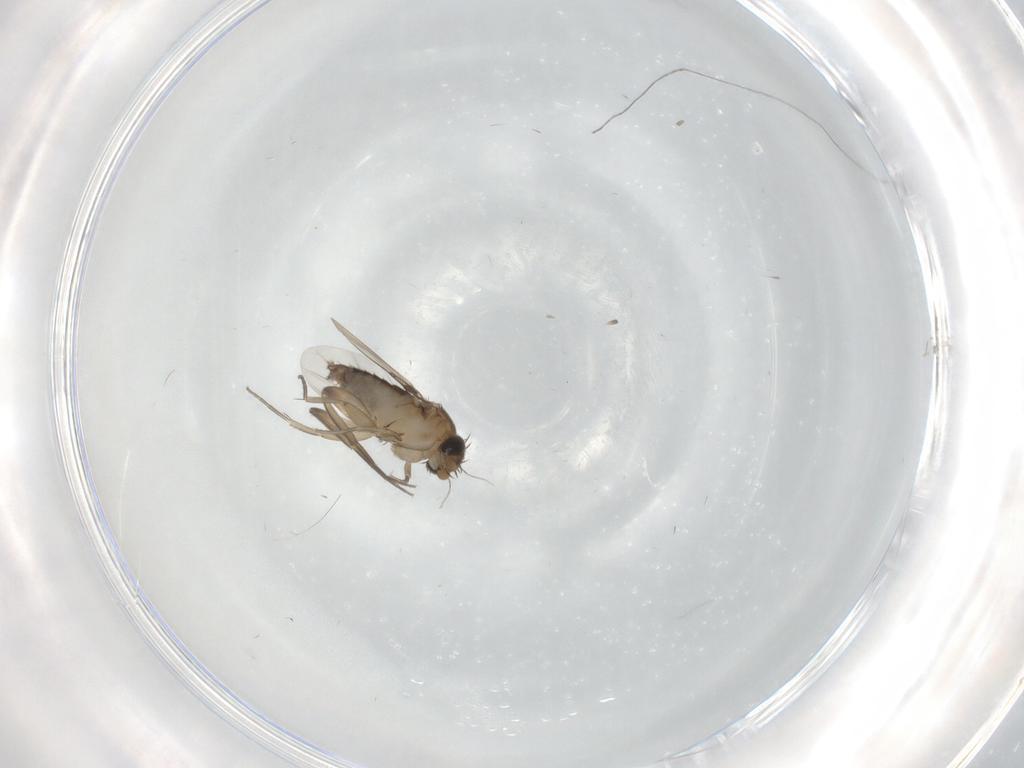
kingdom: Animalia
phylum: Arthropoda
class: Insecta
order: Diptera
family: Phoridae
